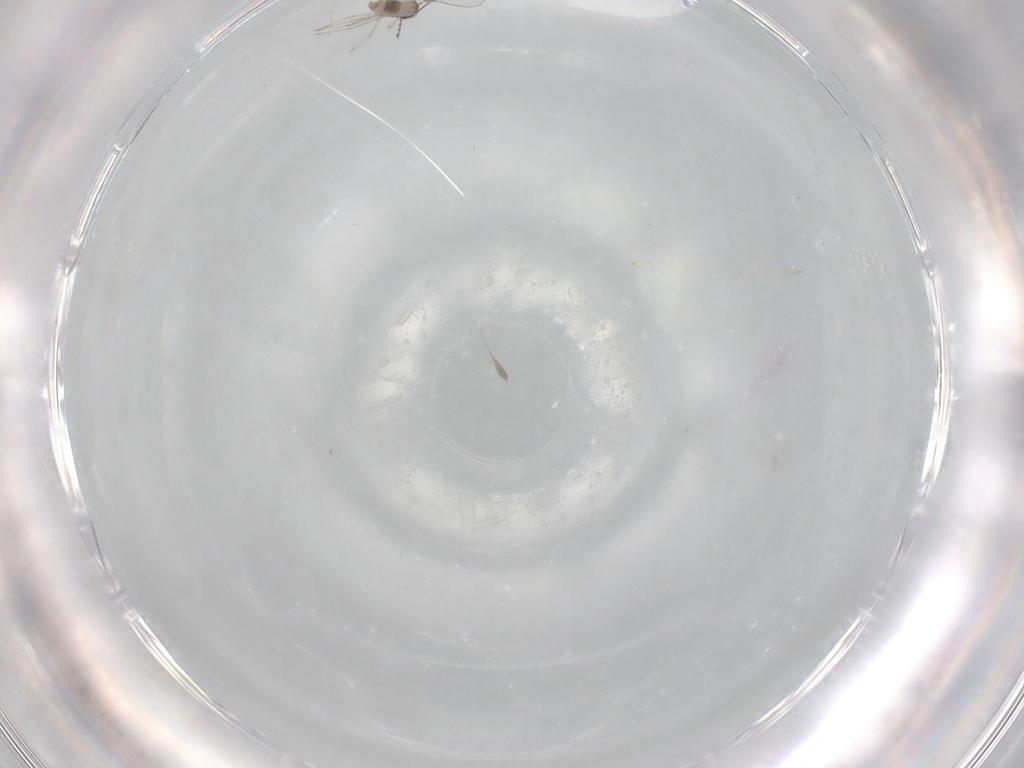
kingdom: Animalia
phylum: Arthropoda
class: Insecta
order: Diptera
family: Cecidomyiidae
